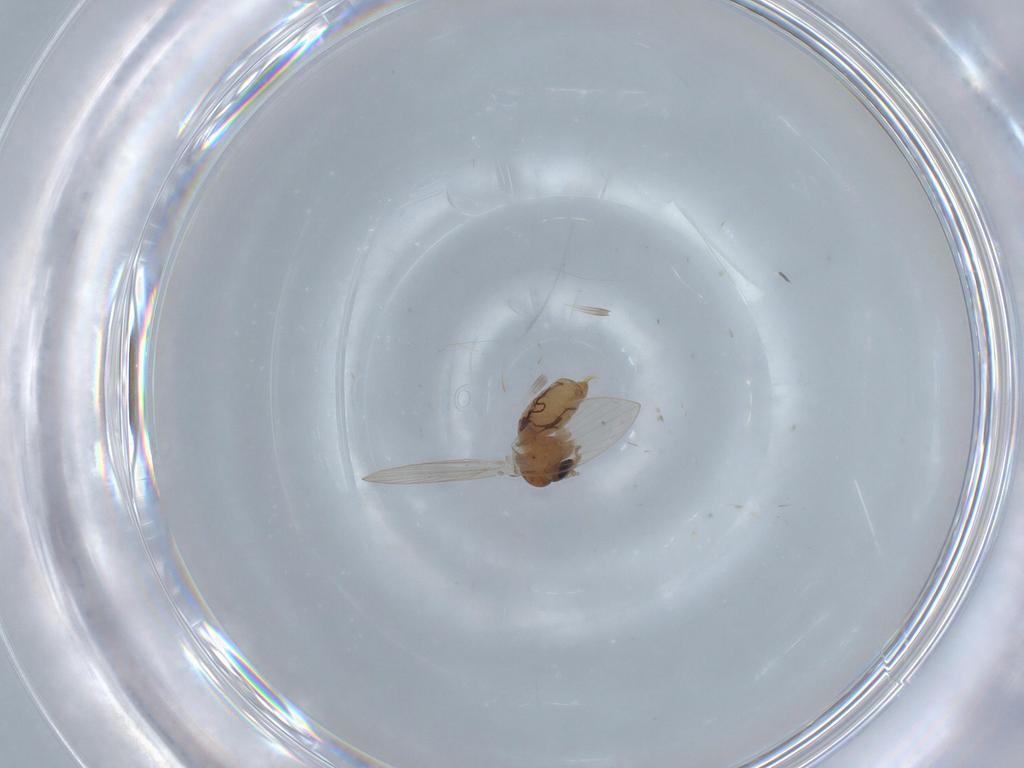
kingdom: Animalia
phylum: Arthropoda
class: Insecta
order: Diptera
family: Psychodidae
